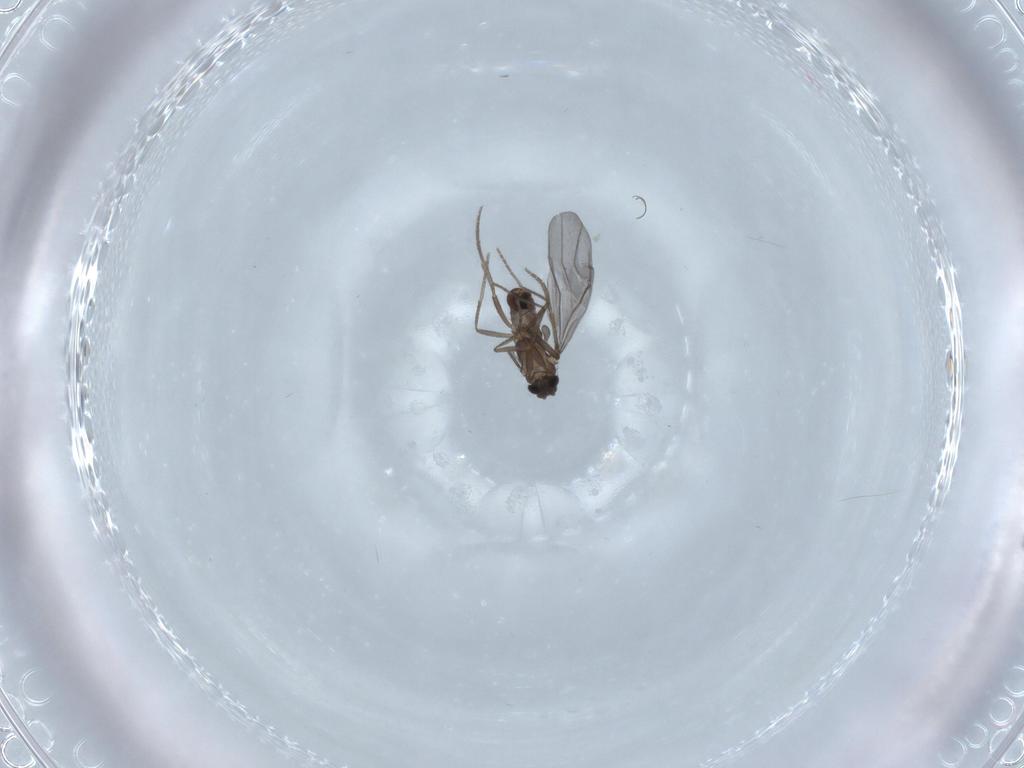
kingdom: Animalia
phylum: Arthropoda
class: Insecta
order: Diptera
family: Phoridae
